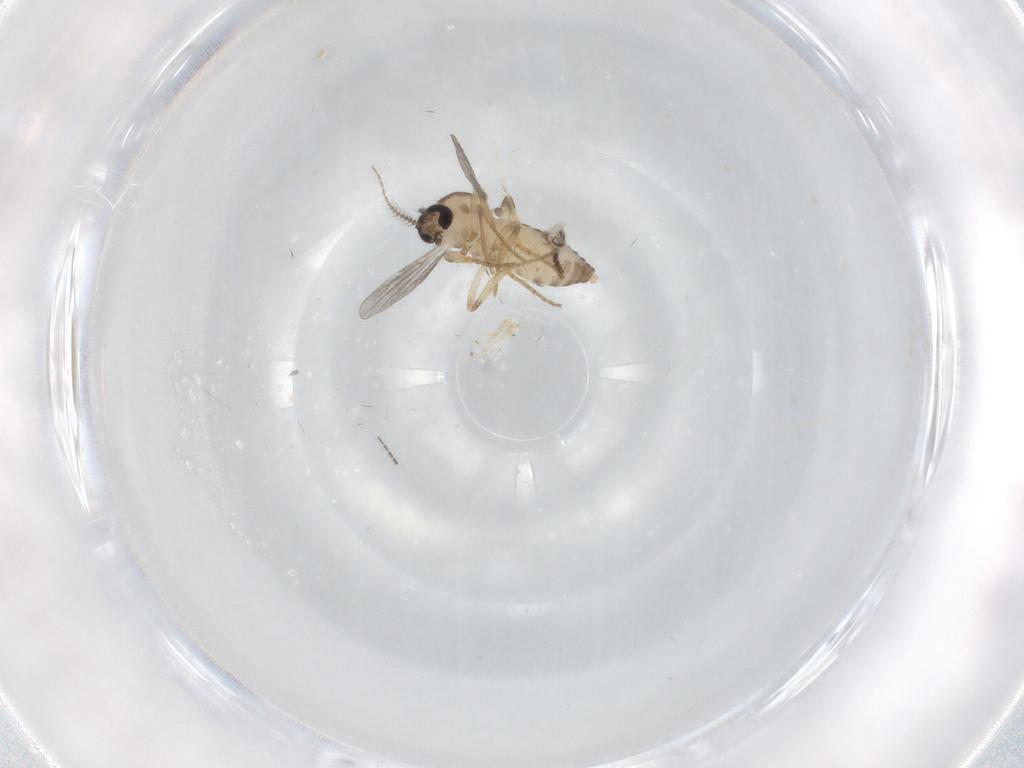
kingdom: Animalia
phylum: Arthropoda
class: Insecta
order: Diptera
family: Ceratopogonidae
